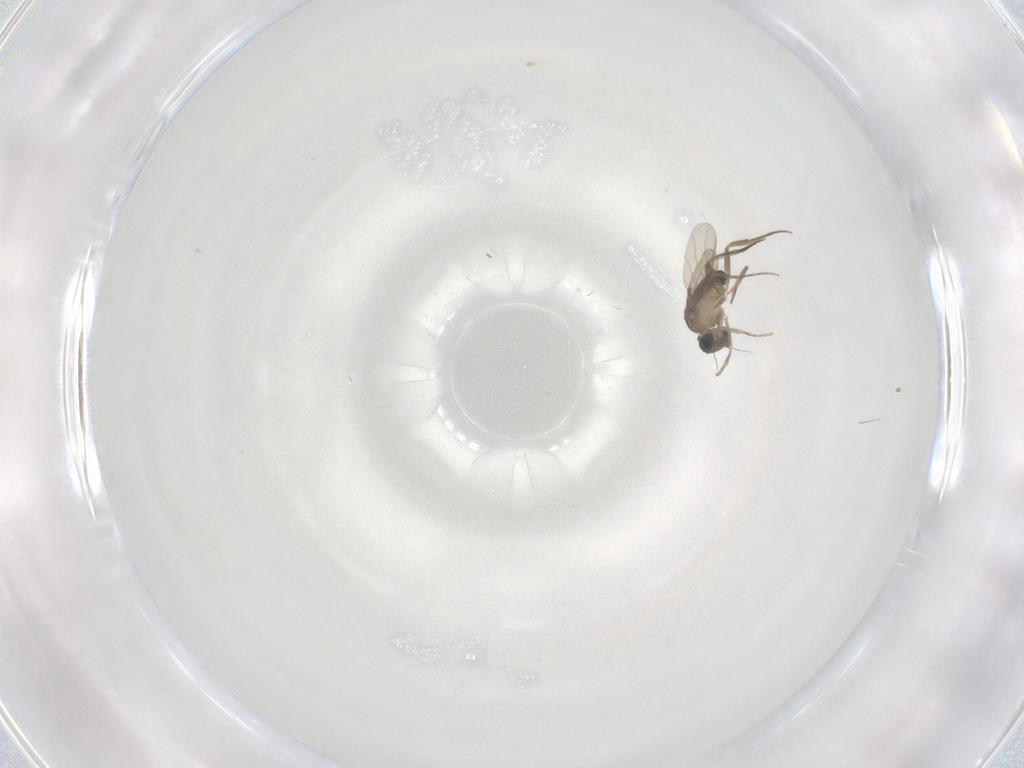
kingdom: Animalia
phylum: Arthropoda
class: Insecta
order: Diptera
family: Phoridae
